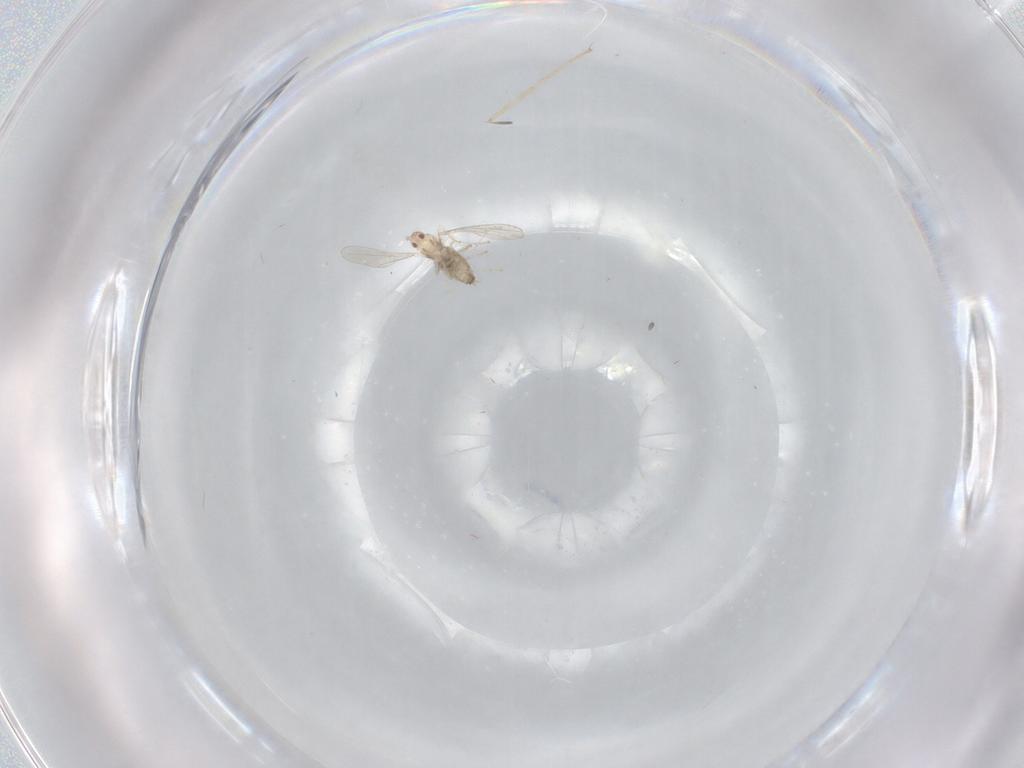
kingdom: Animalia
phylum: Arthropoda
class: Insecta
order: Diptera
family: Cecidomyiidae
